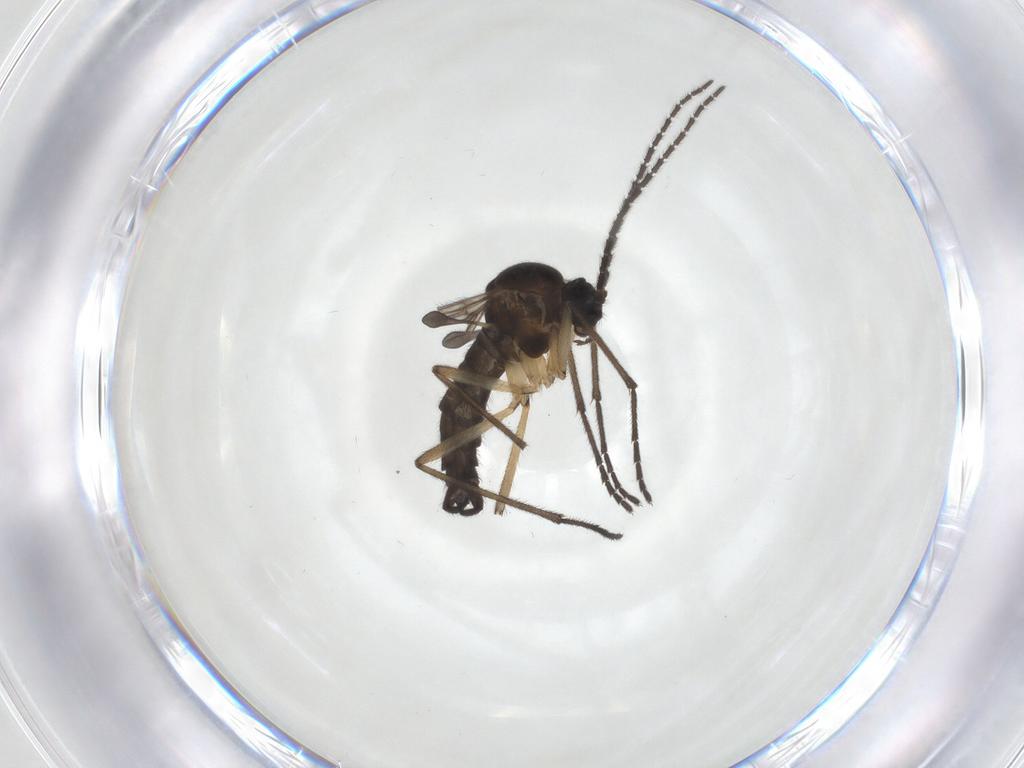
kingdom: Animalia
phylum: Arthropoda
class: Insecta
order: Diptera
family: Sciaridae
